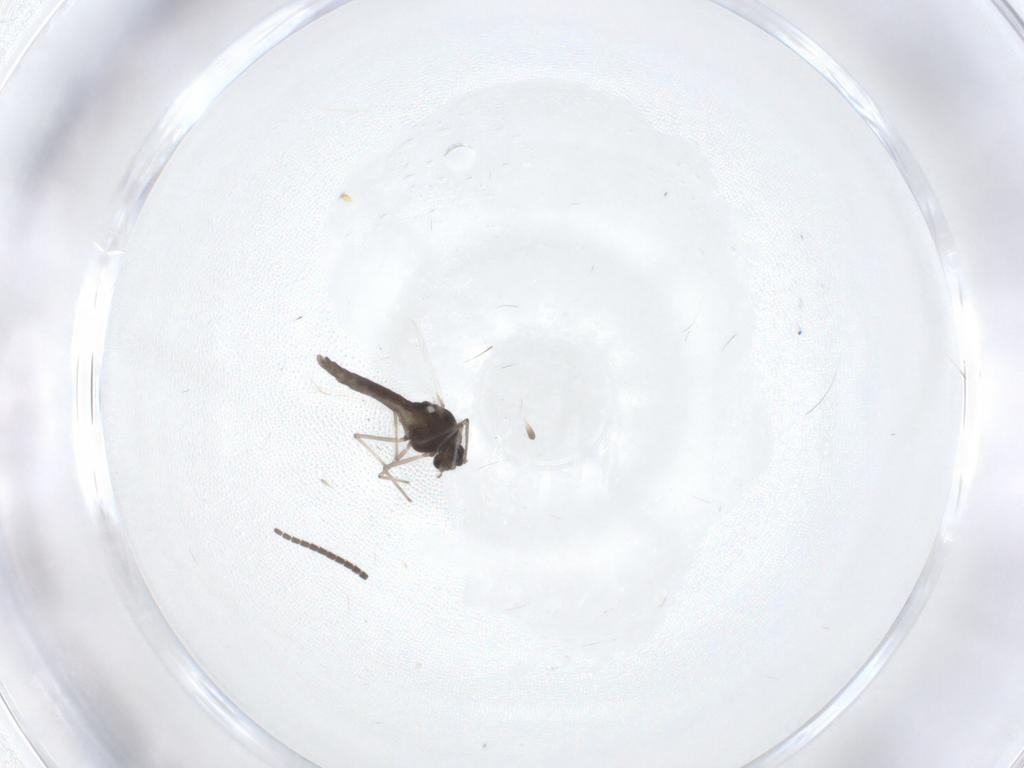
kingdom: Animalia
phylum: Arthropoda
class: Insecta
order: Diptera
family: Sciaridae
